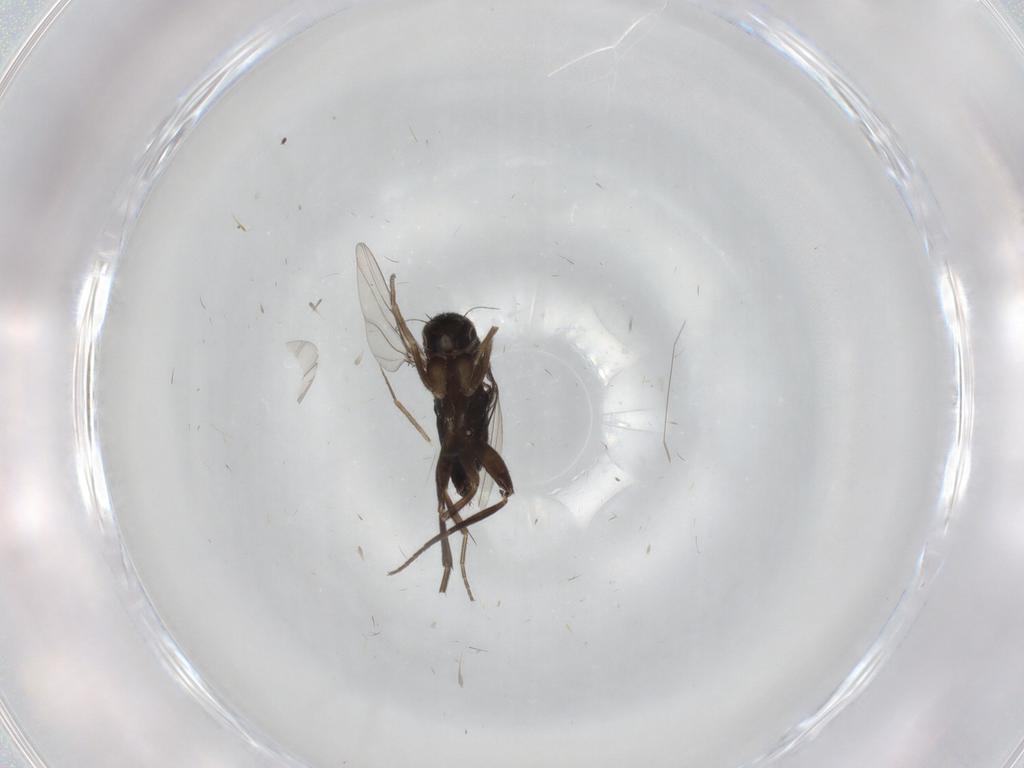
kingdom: Animalia
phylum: Arthropoda
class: Insecta
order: Diptera
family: Phoridae
